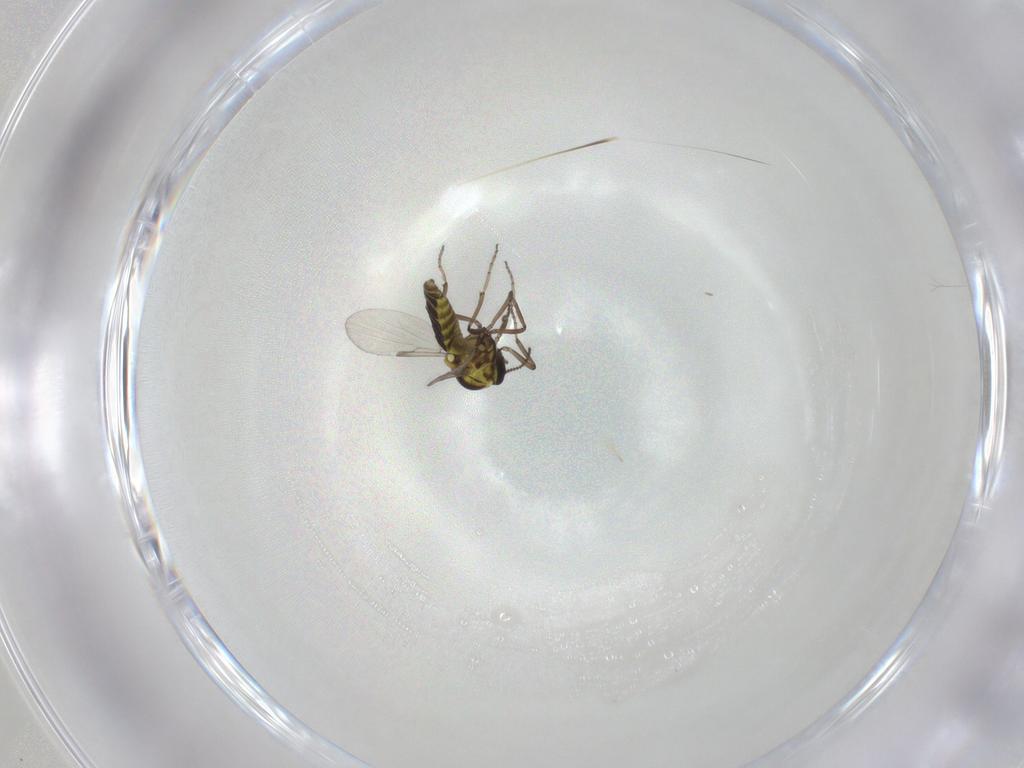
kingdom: Animalia
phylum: Arthropoda
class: Insecta
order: Diptera
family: Ceratopogonidae
